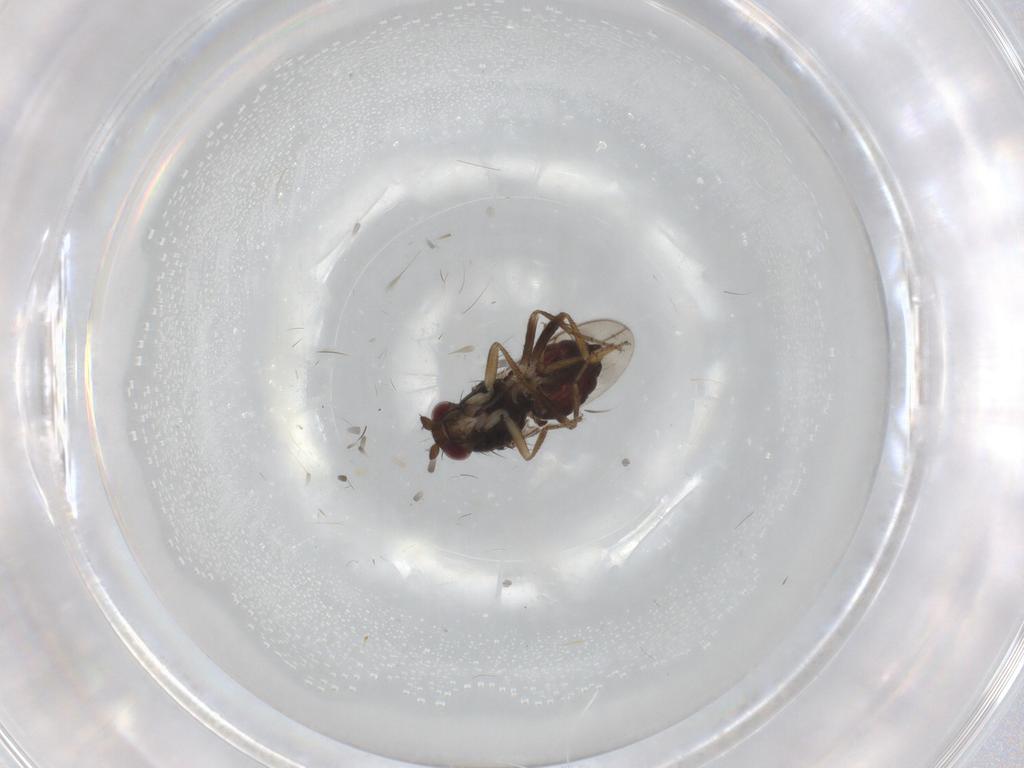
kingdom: Animalia
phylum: Arthropoda
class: Insecta
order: Diptera
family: Sphaeroceridae
